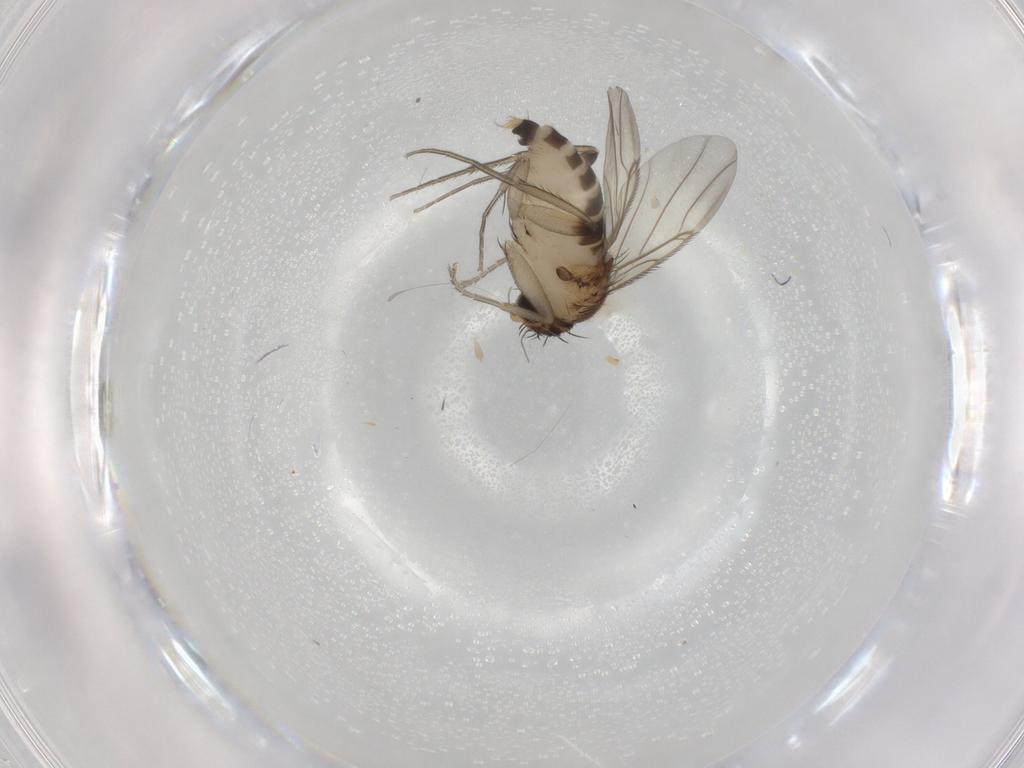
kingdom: Animalia
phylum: Arthropoda
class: Insecta
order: Diptera
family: Phoridae
